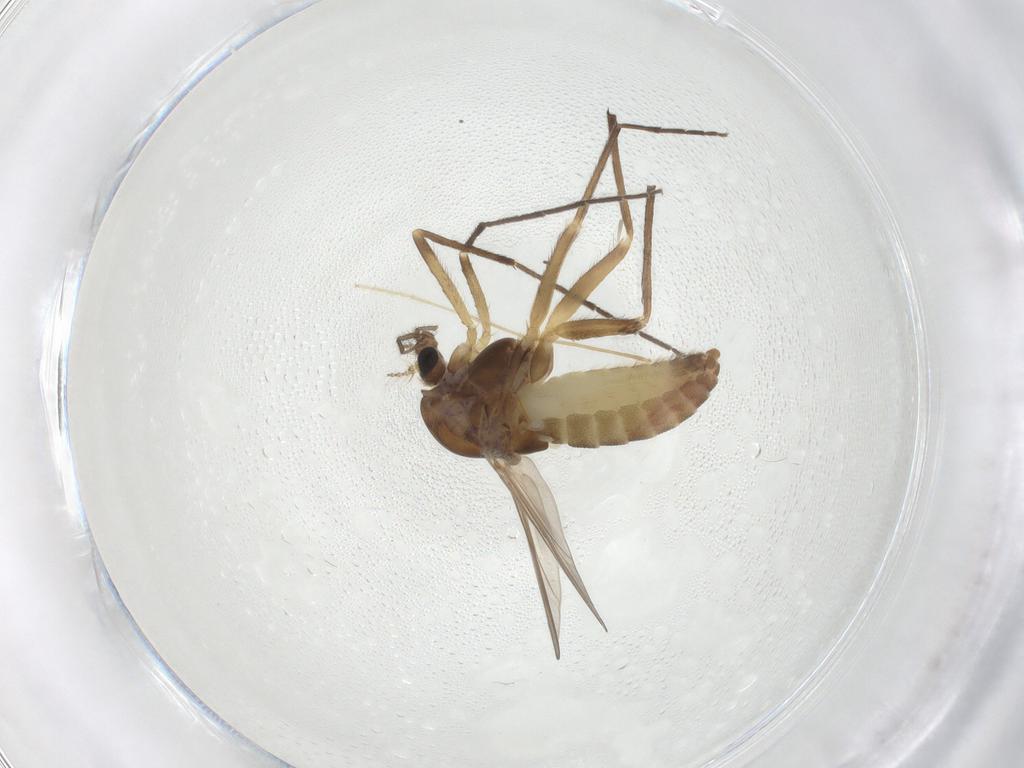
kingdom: Animalia
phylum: Arthropoda
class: Insecta
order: Diptera
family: Chironomidae
